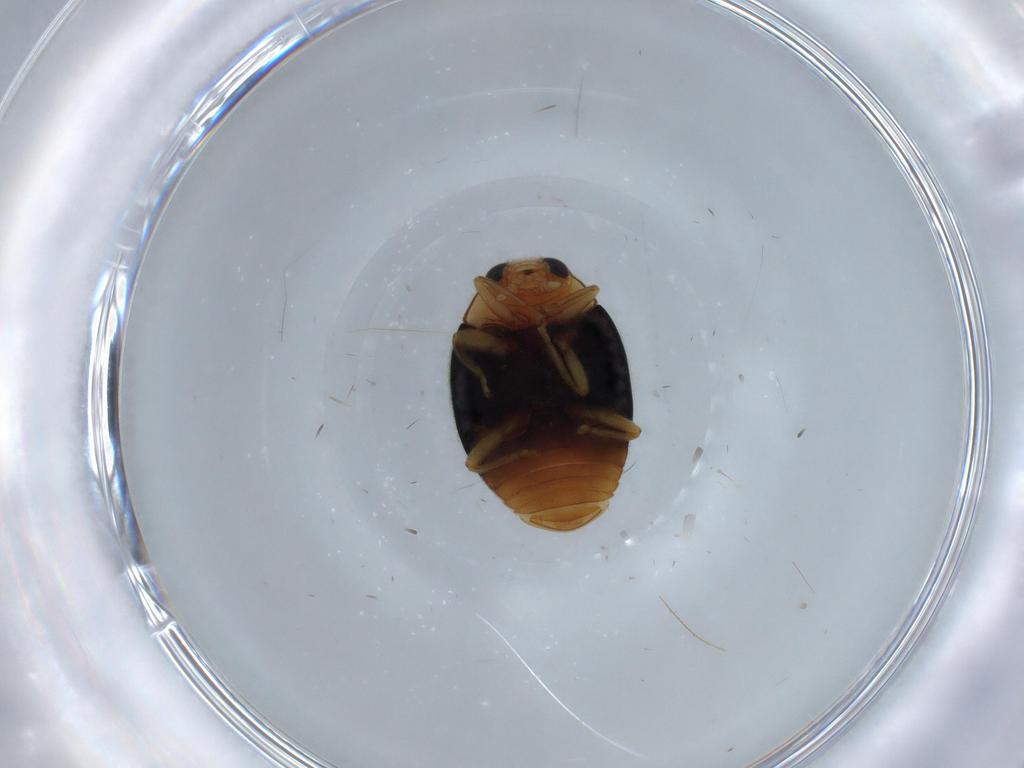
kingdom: Animalia
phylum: Arthropoda
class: Insecta
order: Coleoptera
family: Coccinellidae
